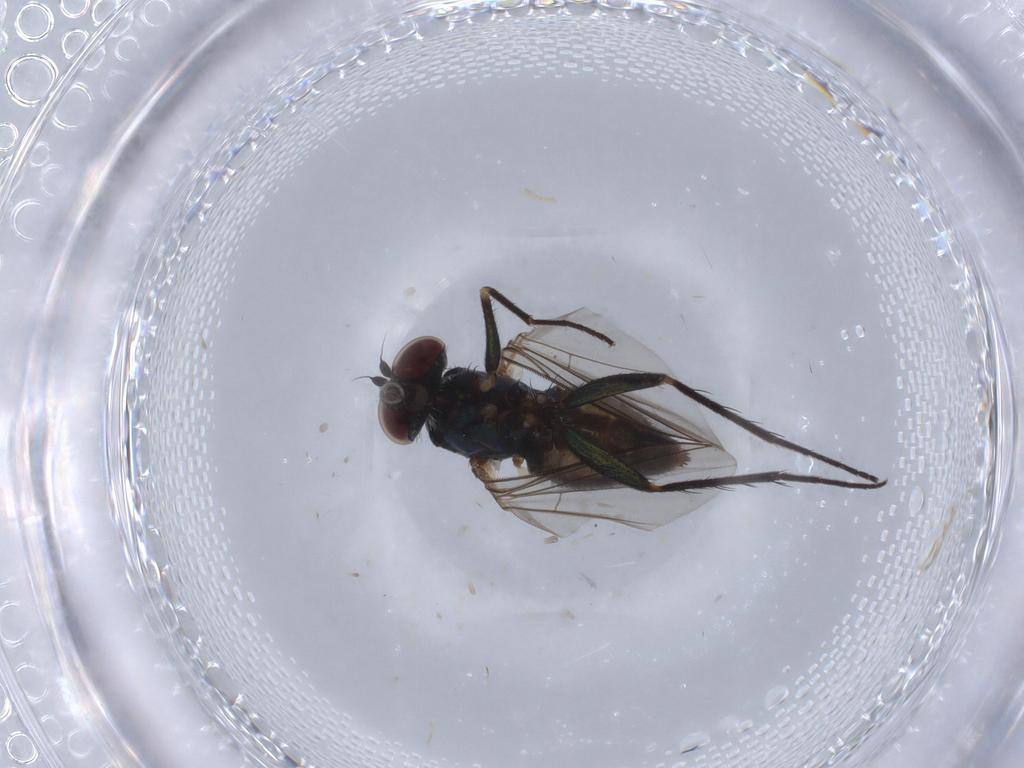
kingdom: Animalia
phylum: Arthropoda
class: Insecta
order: Diptera
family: Dolichopodidae
